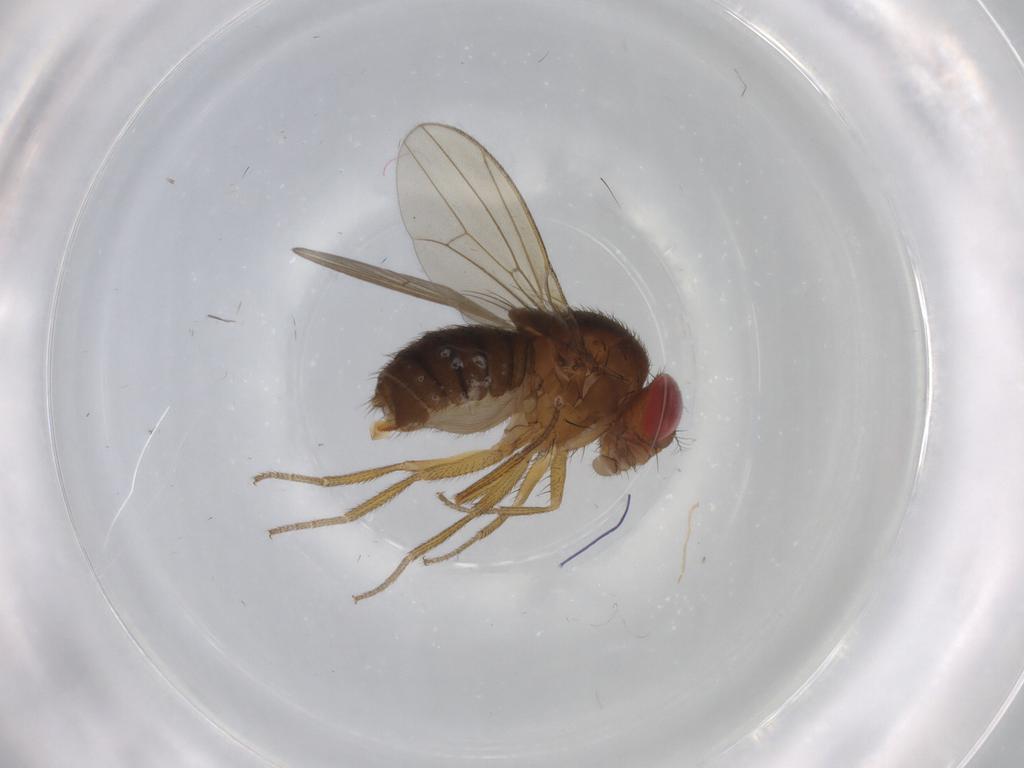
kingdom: Animalia
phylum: Arthropoda
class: Insecta
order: Diptera
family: Drosophilidae
